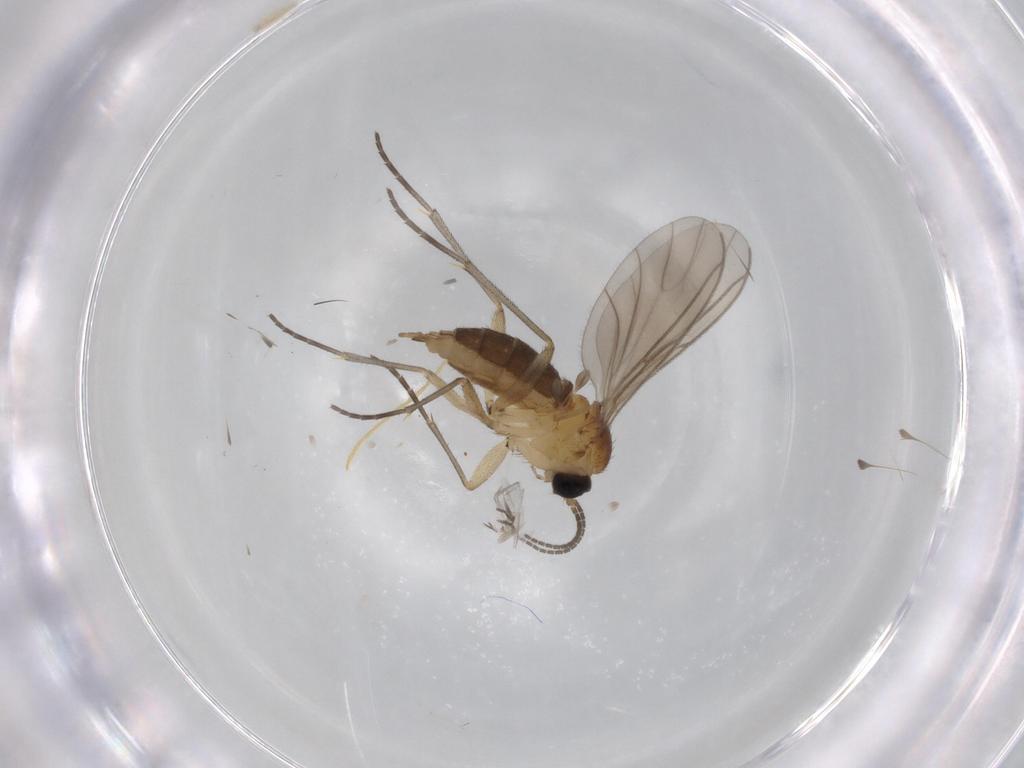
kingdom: Animalia
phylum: Arthropoda
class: Insecta
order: Diptera
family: Sciaridae
